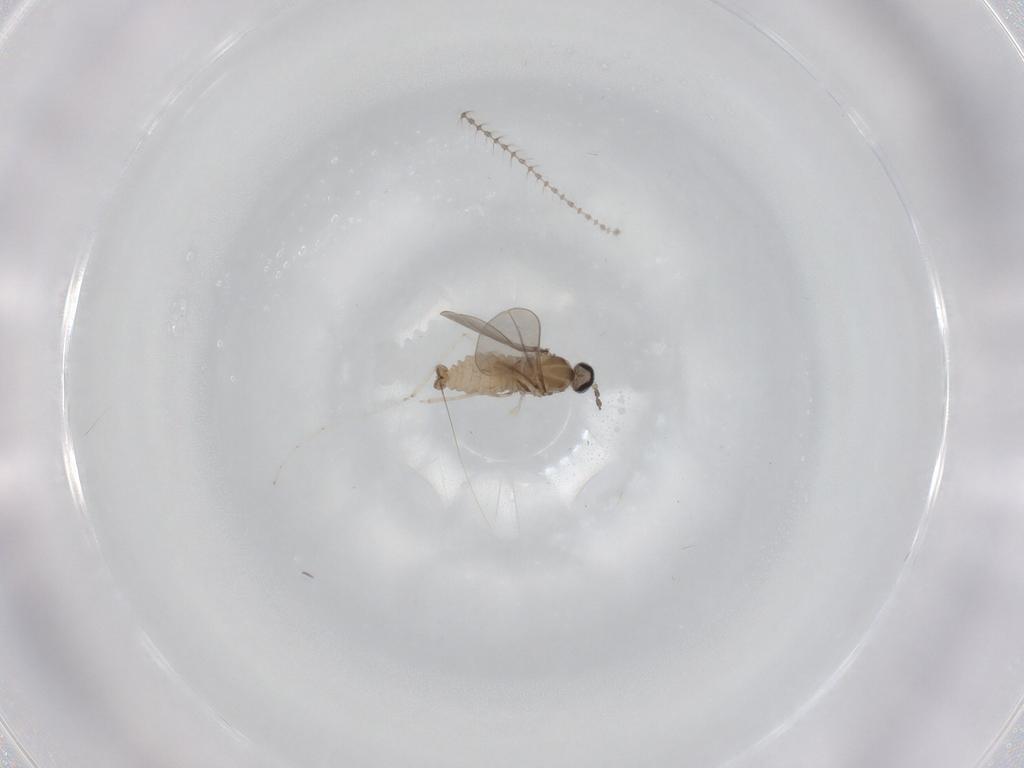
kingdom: Animalia
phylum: Arthropoda
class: Insecta
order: Diptera
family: Cecidomyiidae
